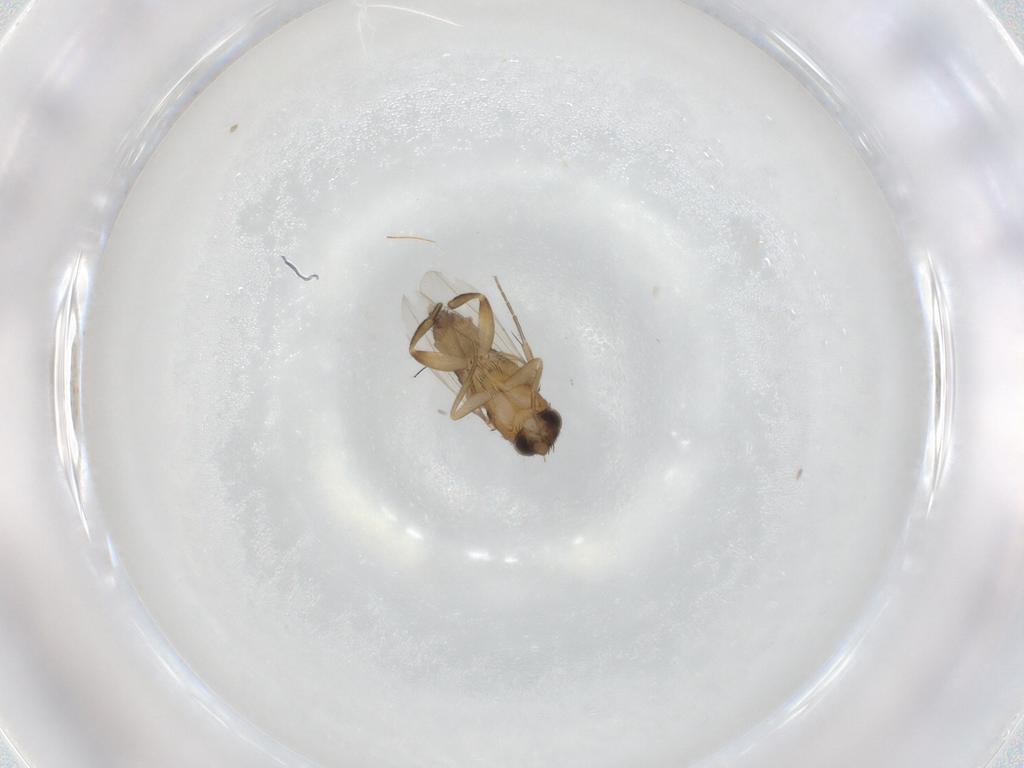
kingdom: Animalia
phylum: Arthropoda
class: Insecta
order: Diptera
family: Phoridae
